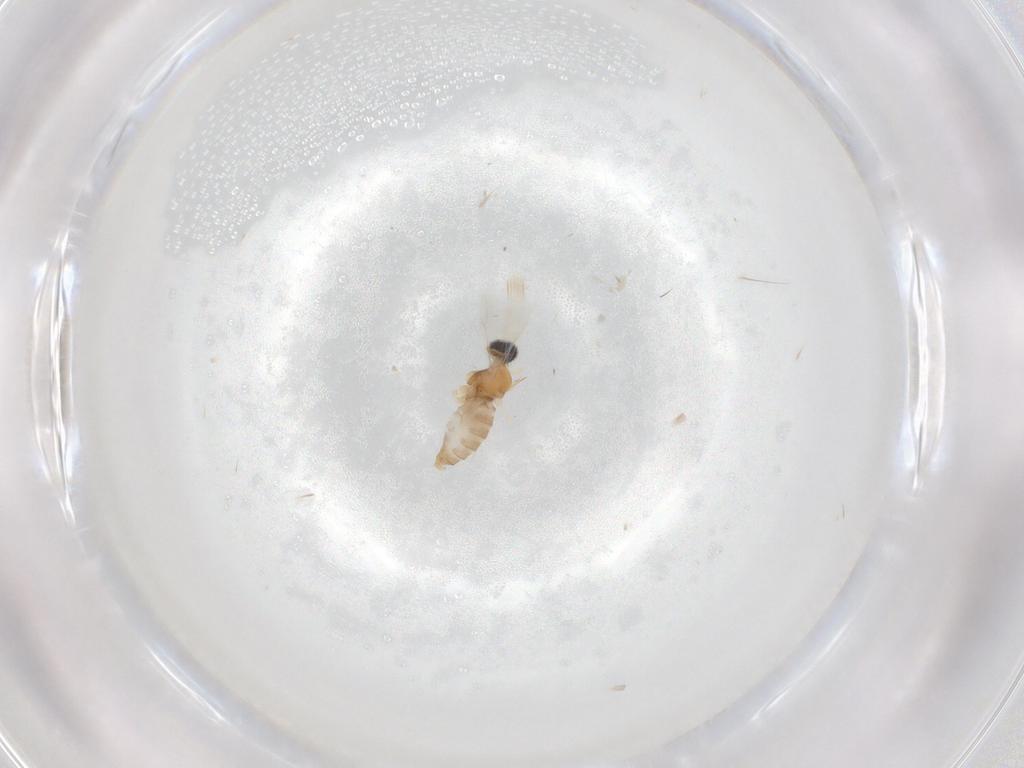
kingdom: Animalia
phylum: Arthropoda
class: Insecta
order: Diptera
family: Cecidomyiidae
